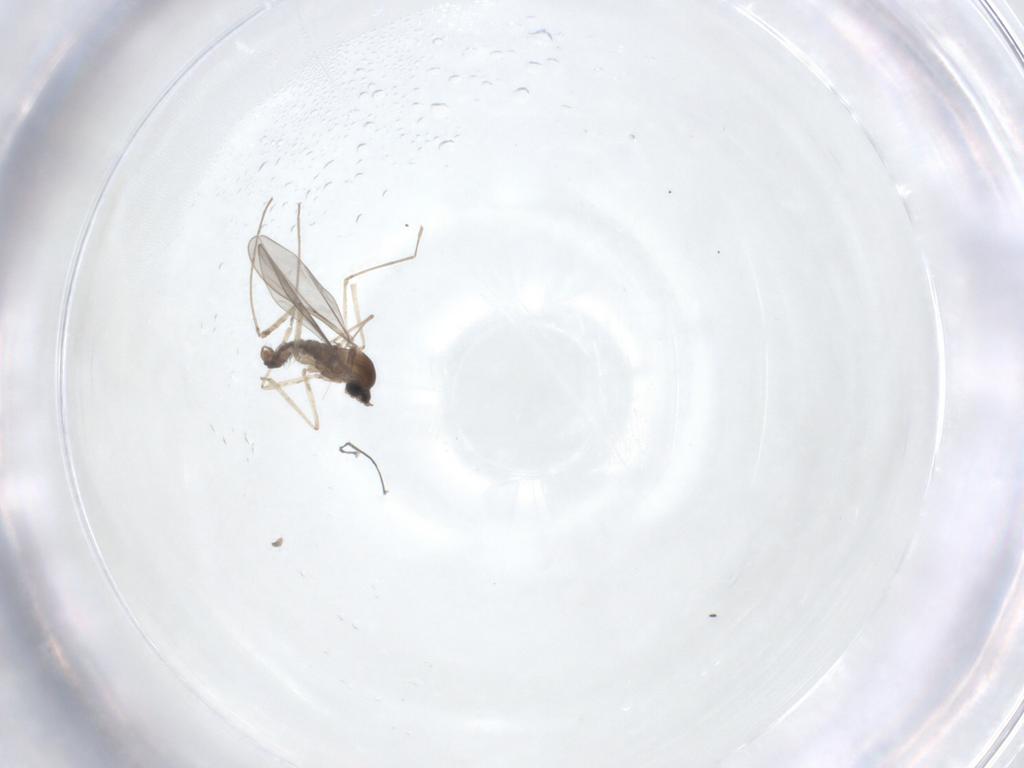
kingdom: Animalia
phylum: Arthropoda
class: Insecta
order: Diptera
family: Cecidomyiidae
